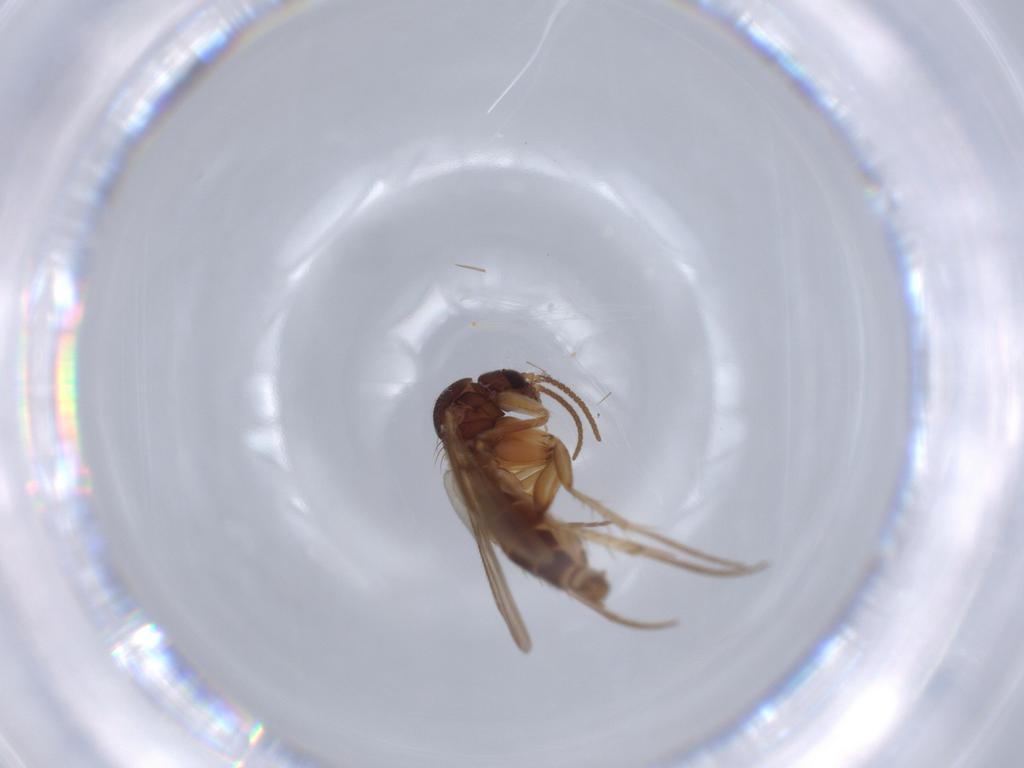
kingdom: Animalia
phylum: Arthropoda
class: Insecta
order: Diptera
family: Mycetophilidae
